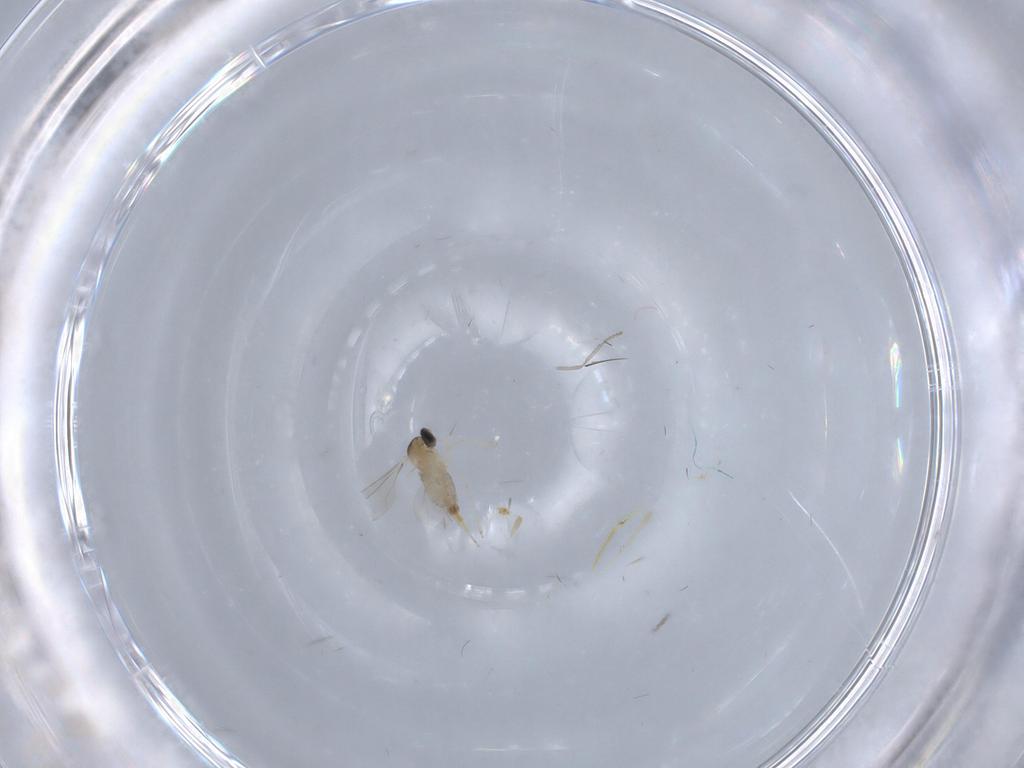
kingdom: Animalia
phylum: Arthropoda
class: Insecta
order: Diptera
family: Cecidomyiidae
